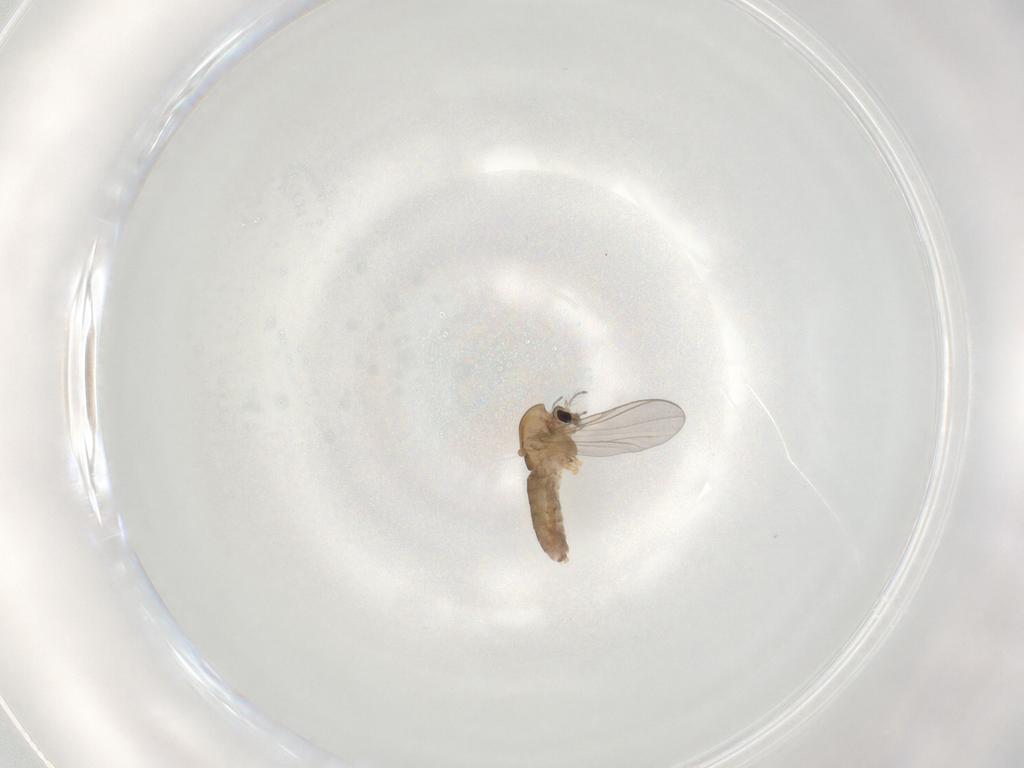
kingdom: Animalia
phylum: Arthropoda
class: Insecta
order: Diptera
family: Chironomidae
